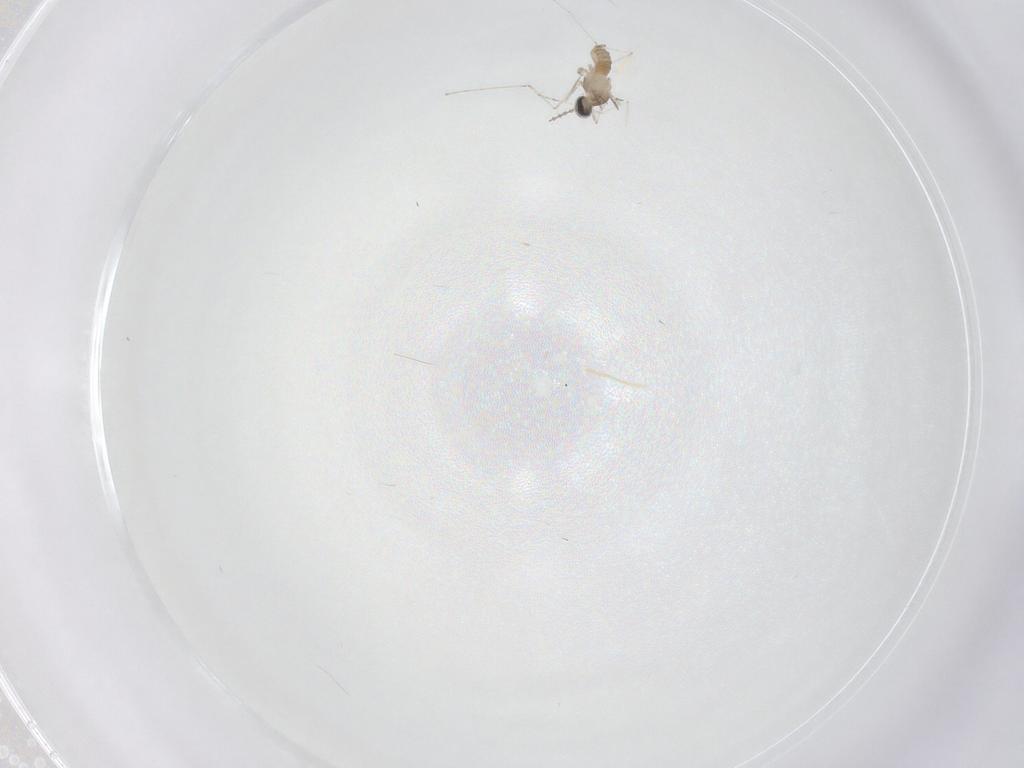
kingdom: Animalia
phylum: Arthropoda
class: Insecta
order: Diptera
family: Cecidomyiidae
